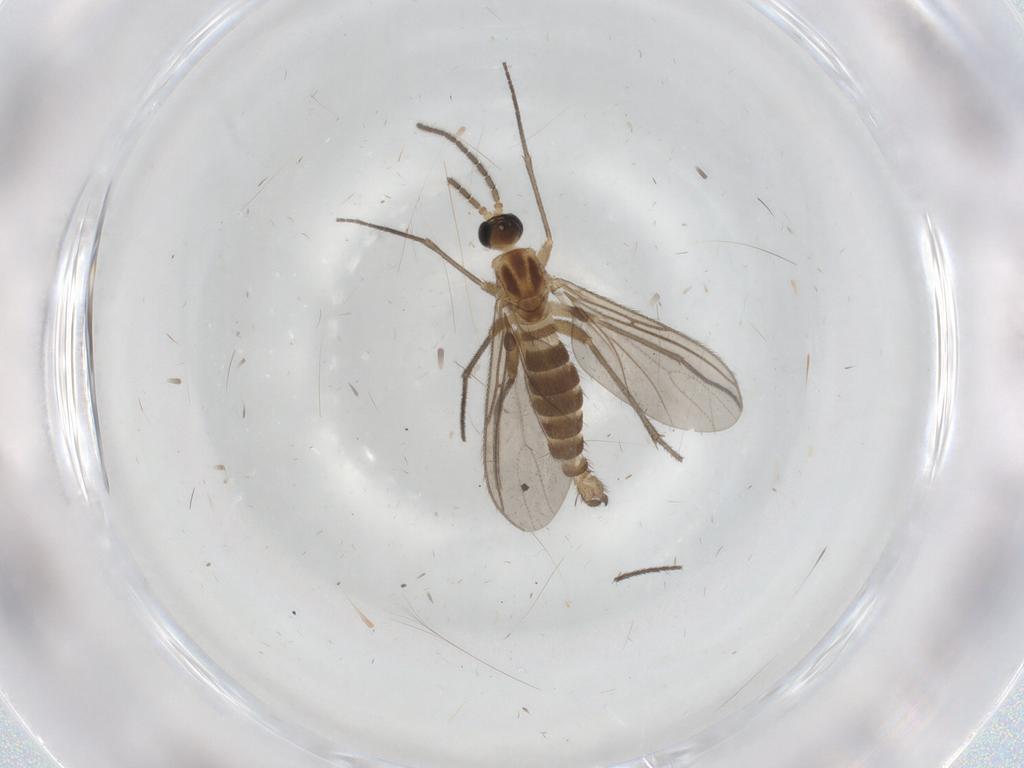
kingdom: Animalia
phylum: Arthropoda
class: Insecta
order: Diptera
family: Sciaridae
